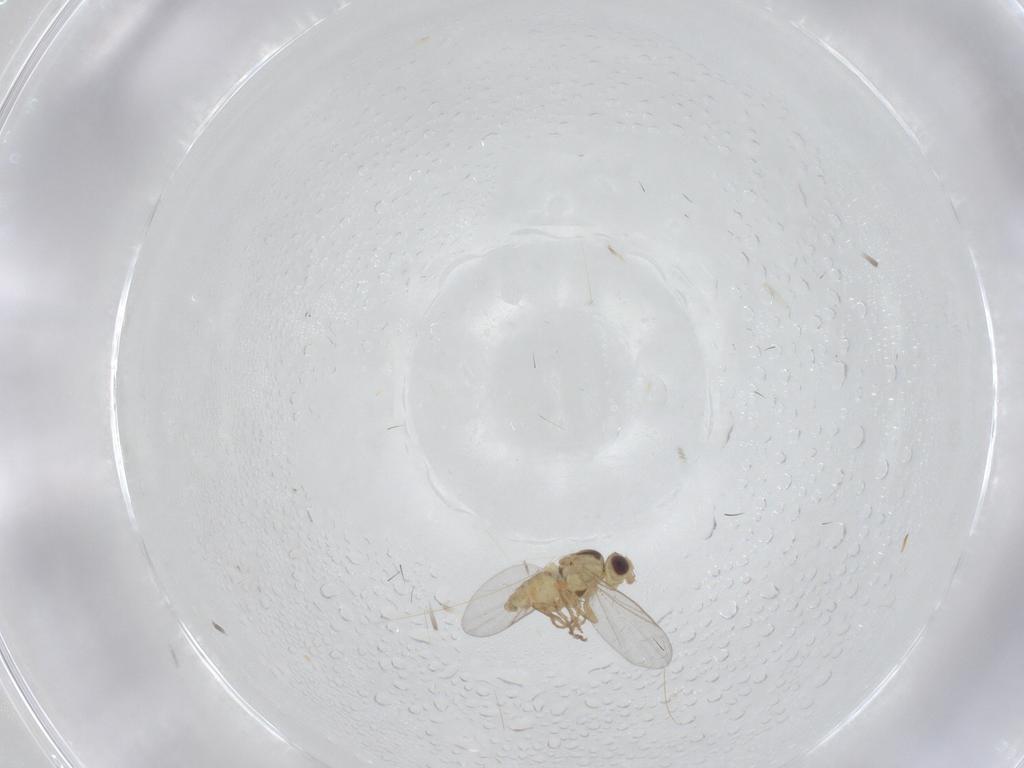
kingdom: Animalia
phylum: Arthropoda
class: Insecta
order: Diptera
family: Agromyzidae
